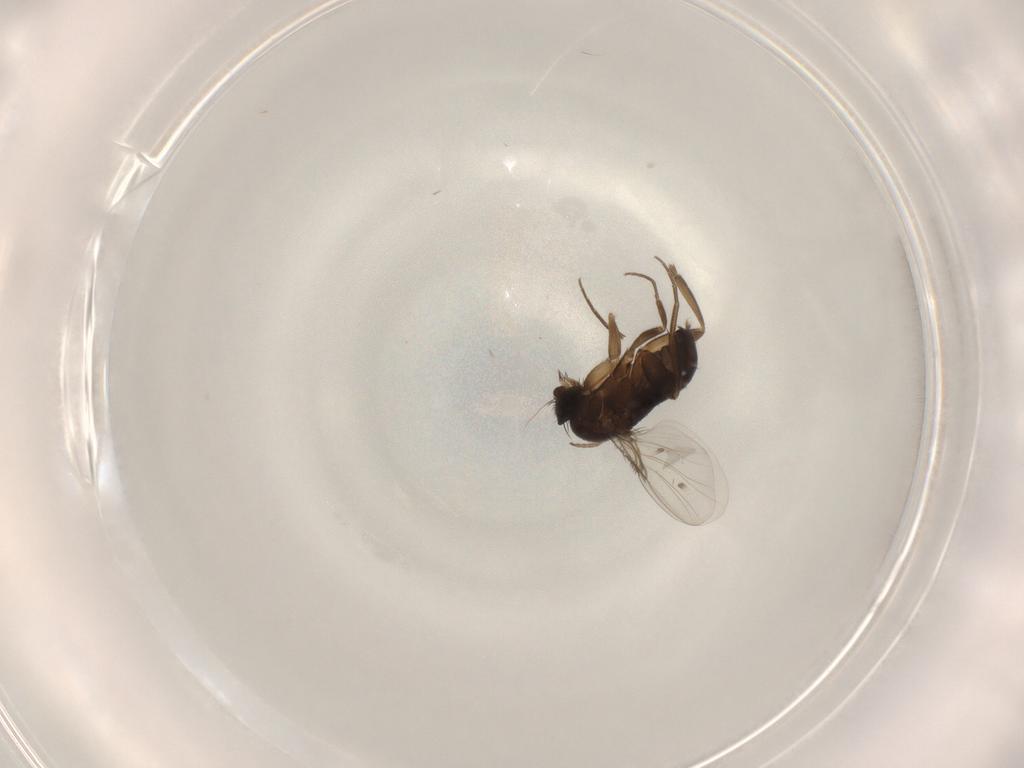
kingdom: Animalia
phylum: Arthropoda
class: Insecta
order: Diptera
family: Phoridae
